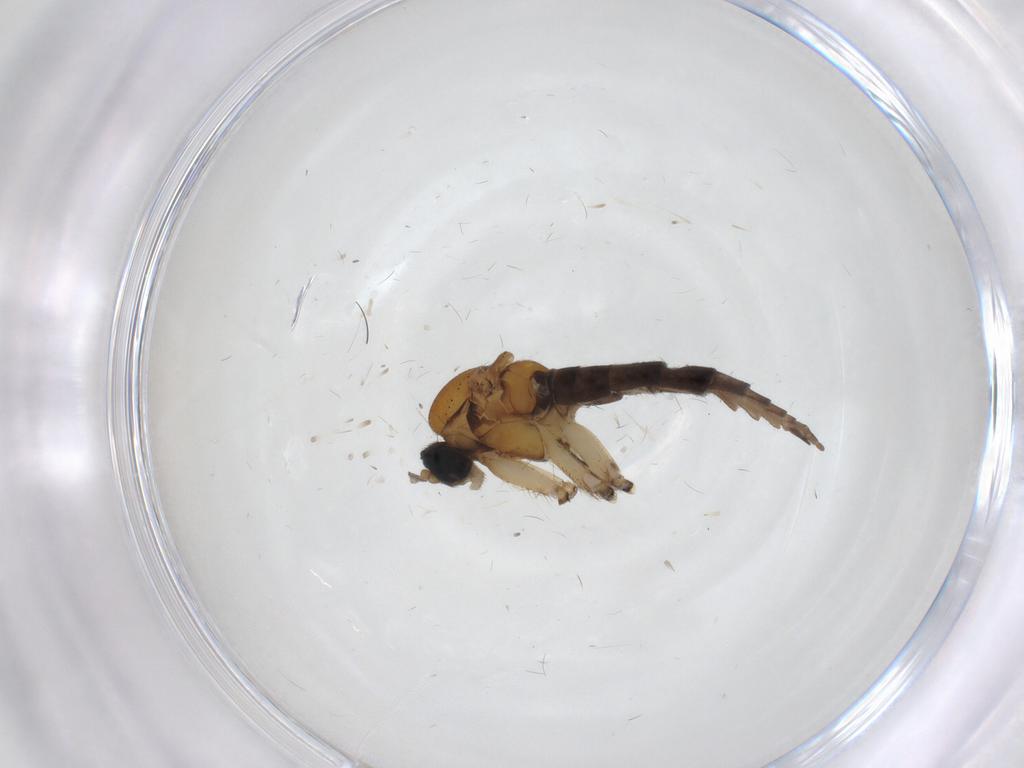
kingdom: Animalia
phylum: Arthropoda
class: Insecta
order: Diptera
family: Sciaridae
